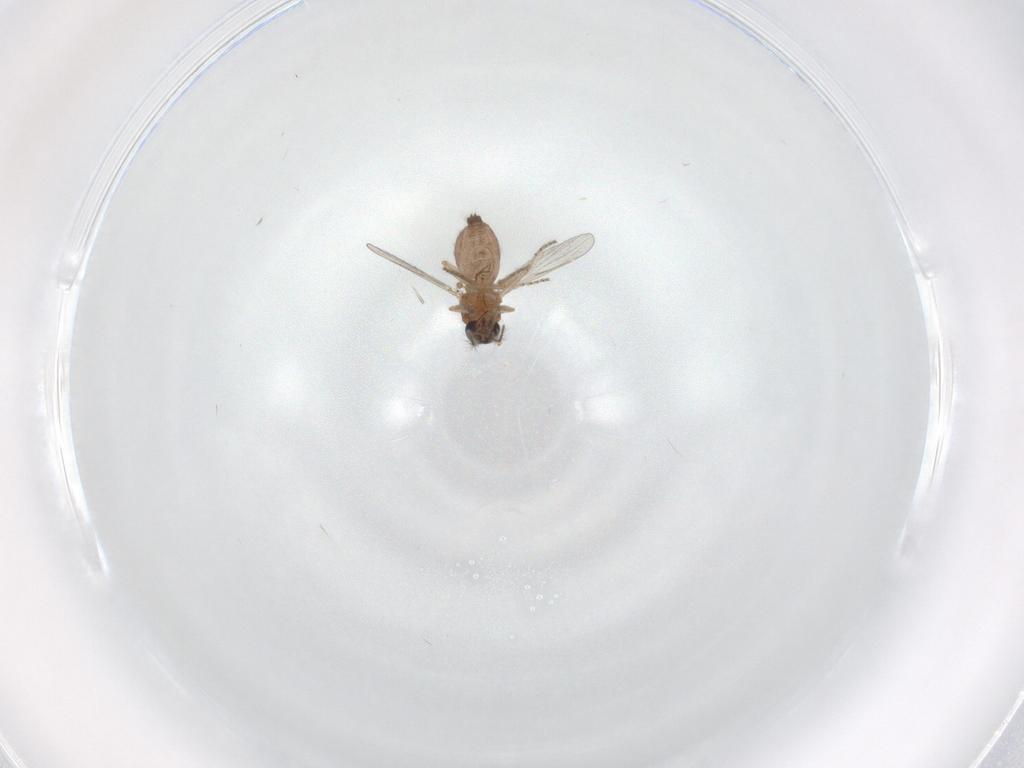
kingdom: Animalia
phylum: Arthropoda
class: Insecta
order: Diptera
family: Ceratopogonidae
